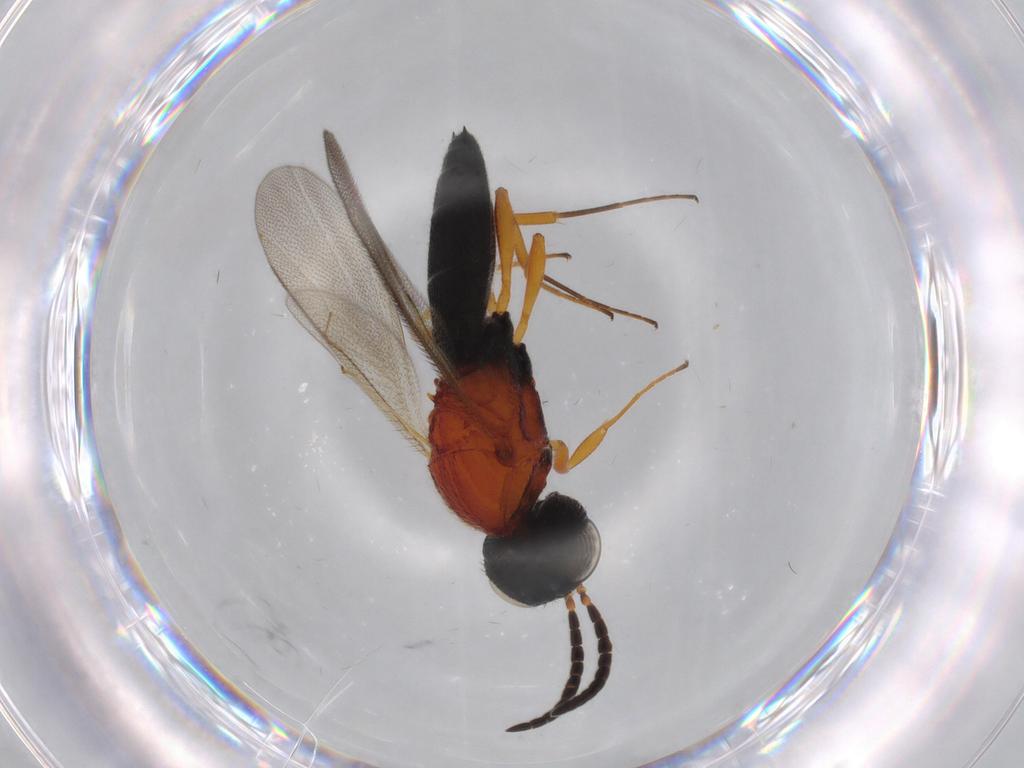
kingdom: Animalia
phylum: Arthropoda
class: Insecta
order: Hymenoptera
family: Scelionidae
